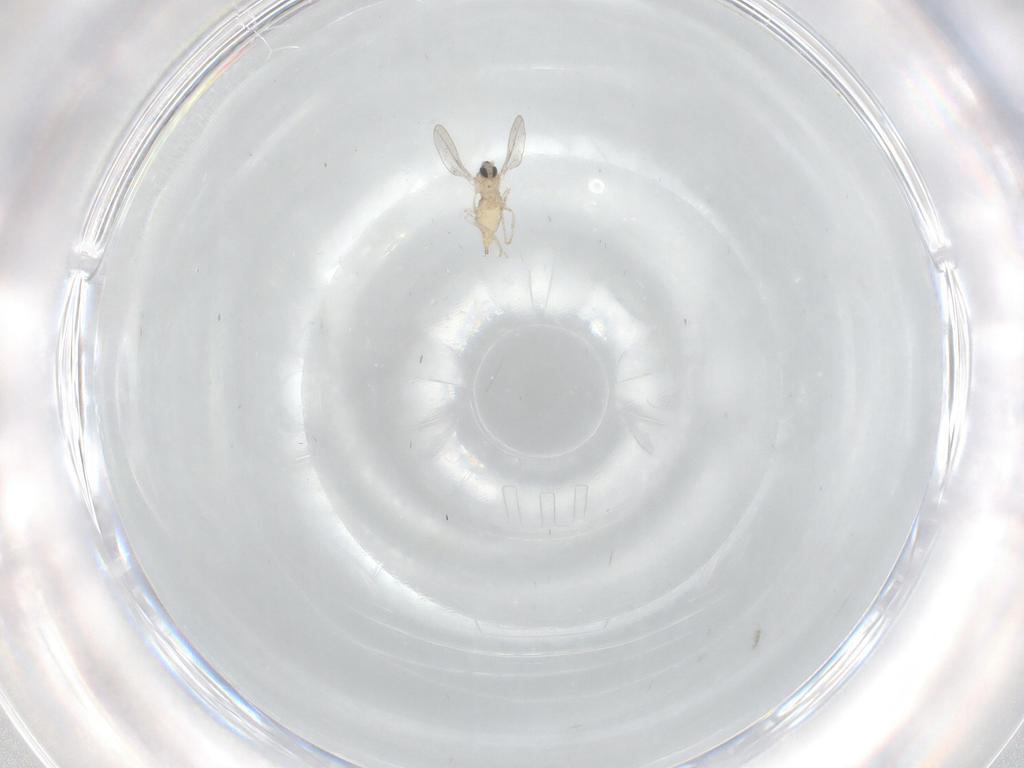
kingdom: Animalia
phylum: Arthropoda
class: Insecta
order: Diptera
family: Cecidomyiidae
